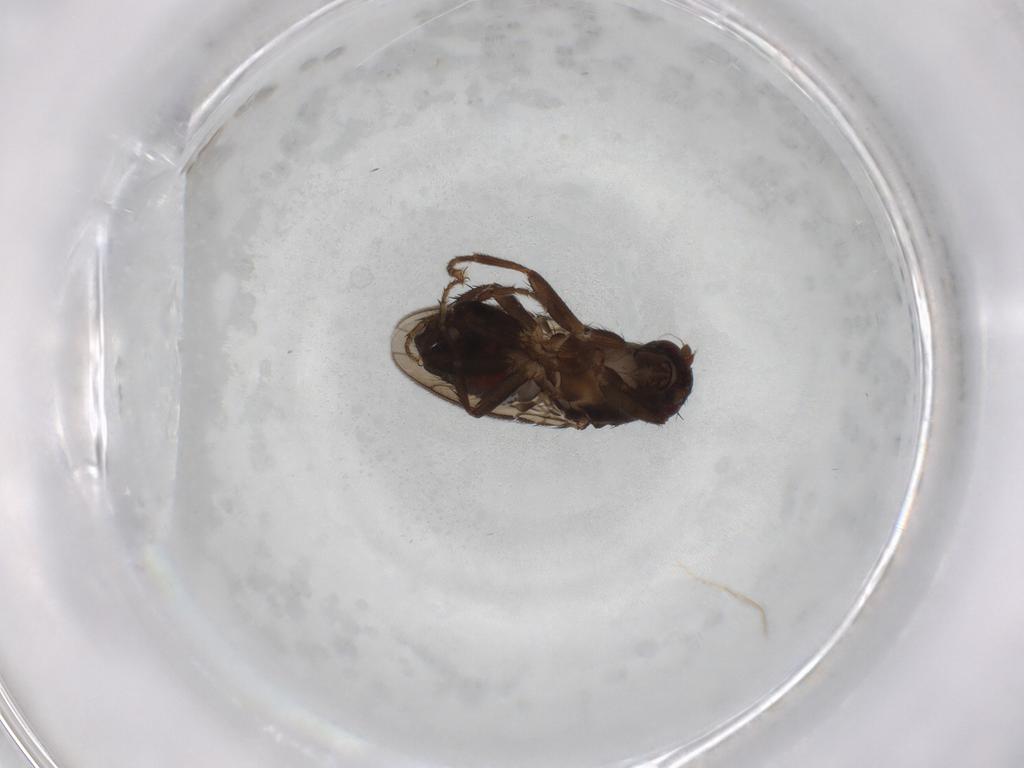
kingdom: Animalia
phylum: Arthropoda
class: Insecta
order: Diptera
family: Sphaeroceridae
